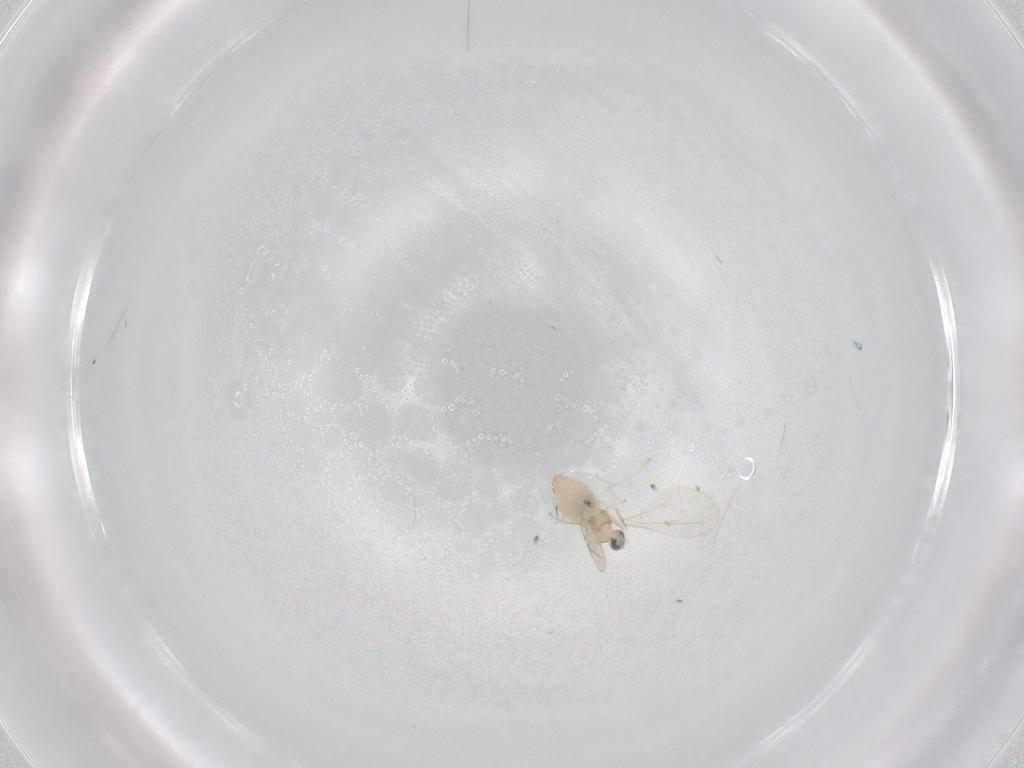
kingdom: Animalia
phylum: Arthropoda
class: Insecta
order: Diptera
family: Cecidomyiidae
